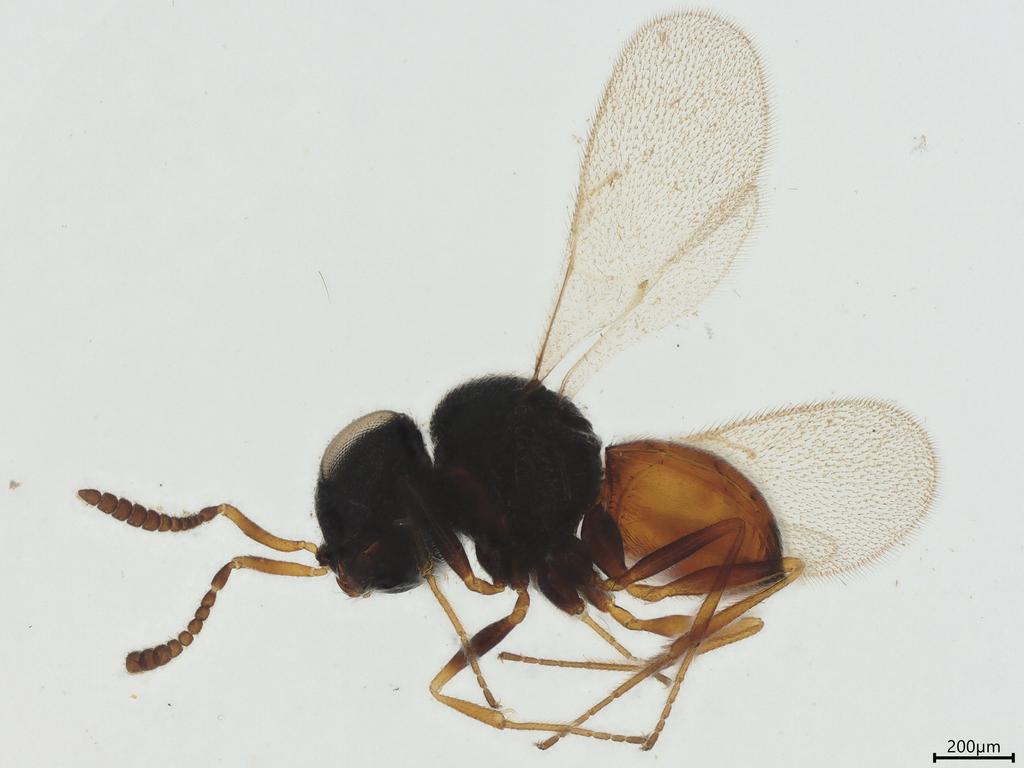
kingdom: Animalia
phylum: Arthropoda
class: Insecta
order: Hymenoptera
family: Scelionidae
